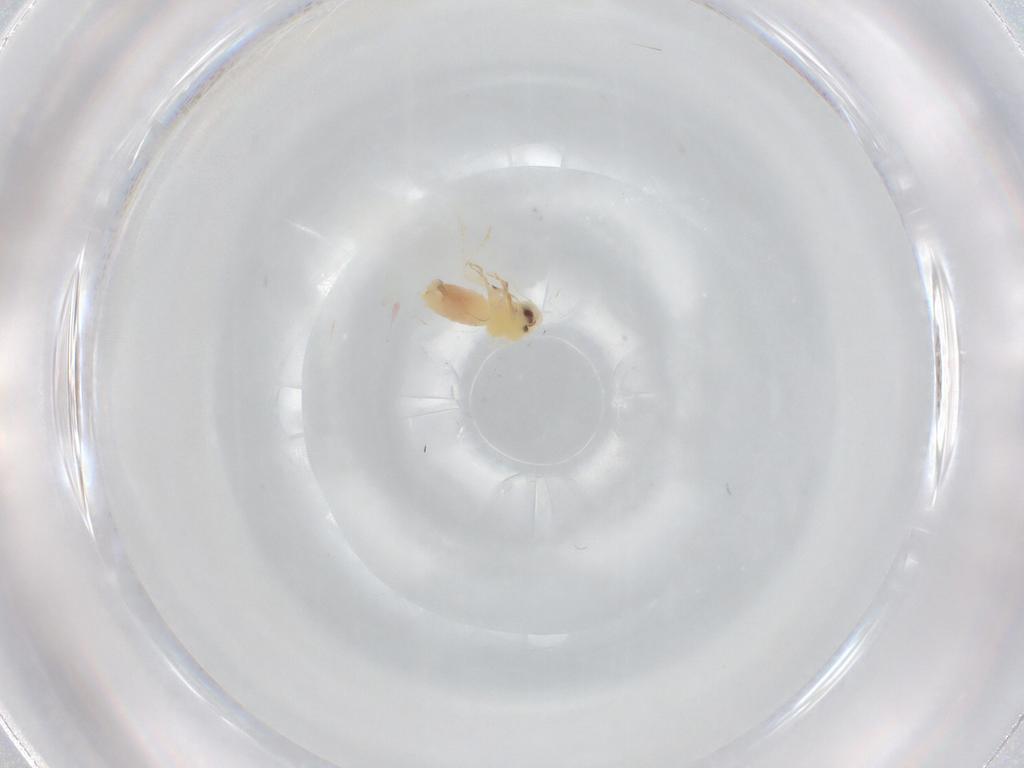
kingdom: Animalia
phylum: Arthropoda
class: Insecta
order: Hemiptera
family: Aleyrodidae
